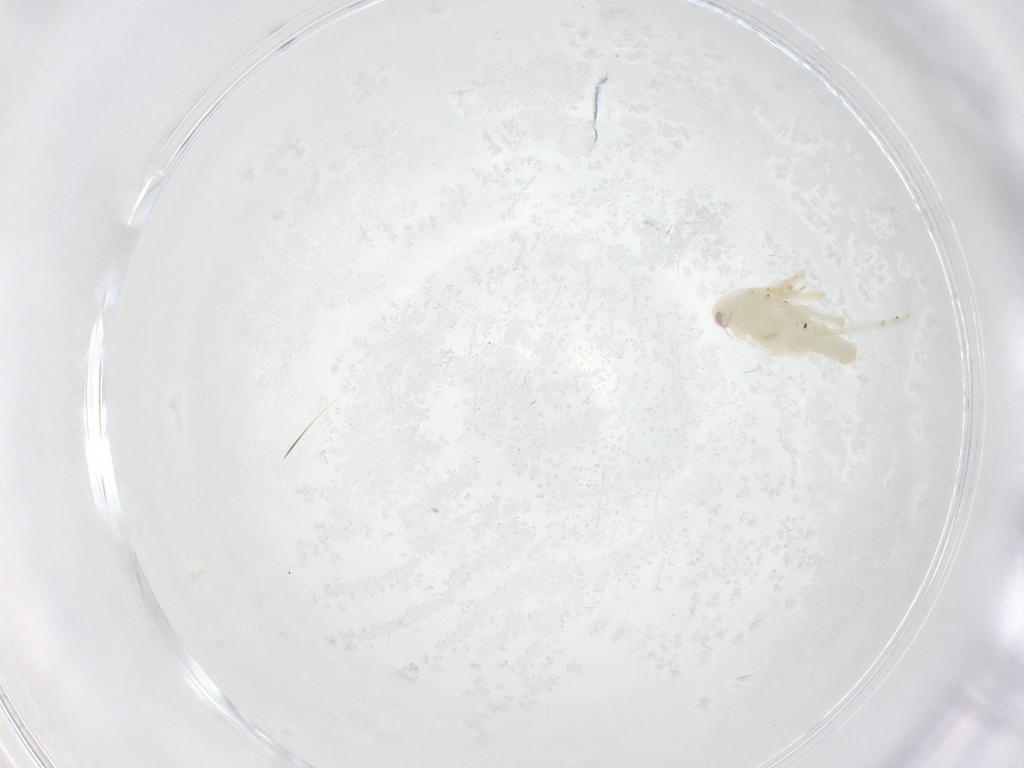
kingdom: Animalia
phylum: Arthropoda
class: Insecta
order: Hemiptera
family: Tropiduchidae
